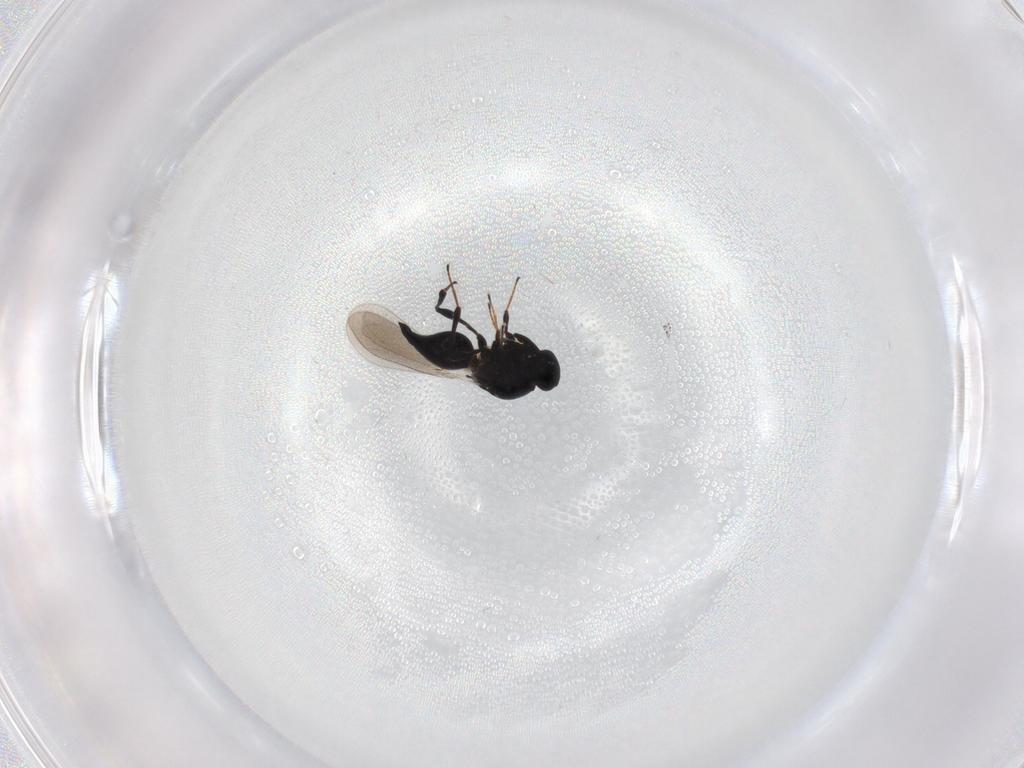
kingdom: Animalia
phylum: Arthropoda
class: Insecta
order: Hymenoptera
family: Platygastridae
